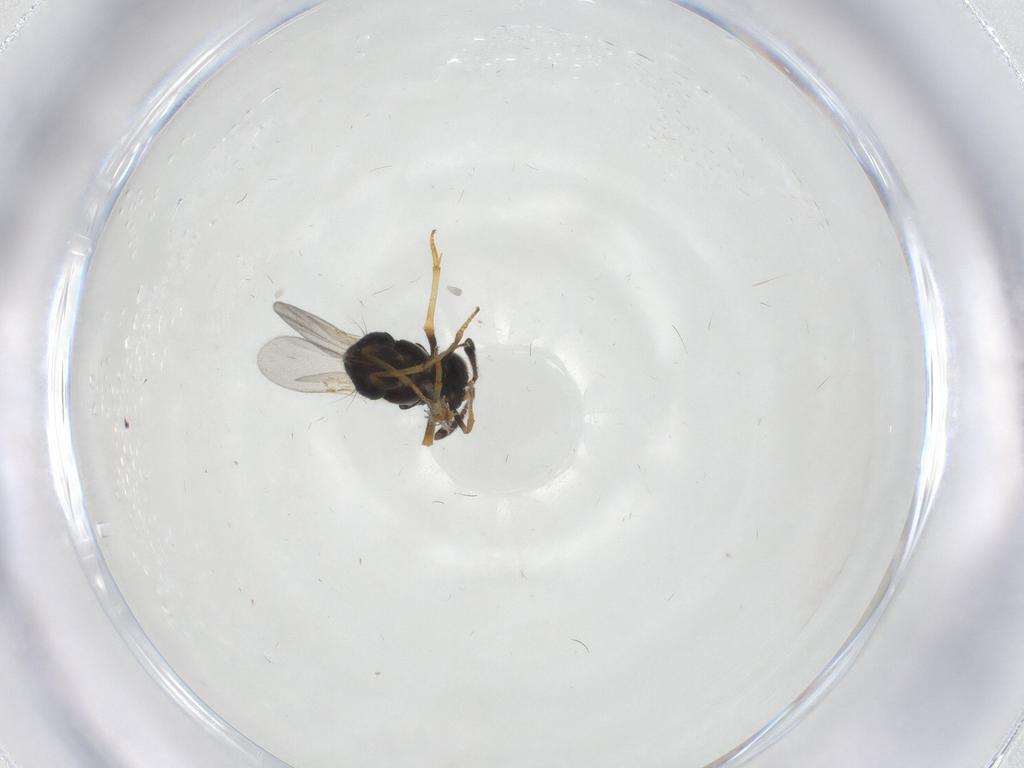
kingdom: Animalia
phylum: Arthropoda
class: Insecta
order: Hymenoptera
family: Encyrtidae
